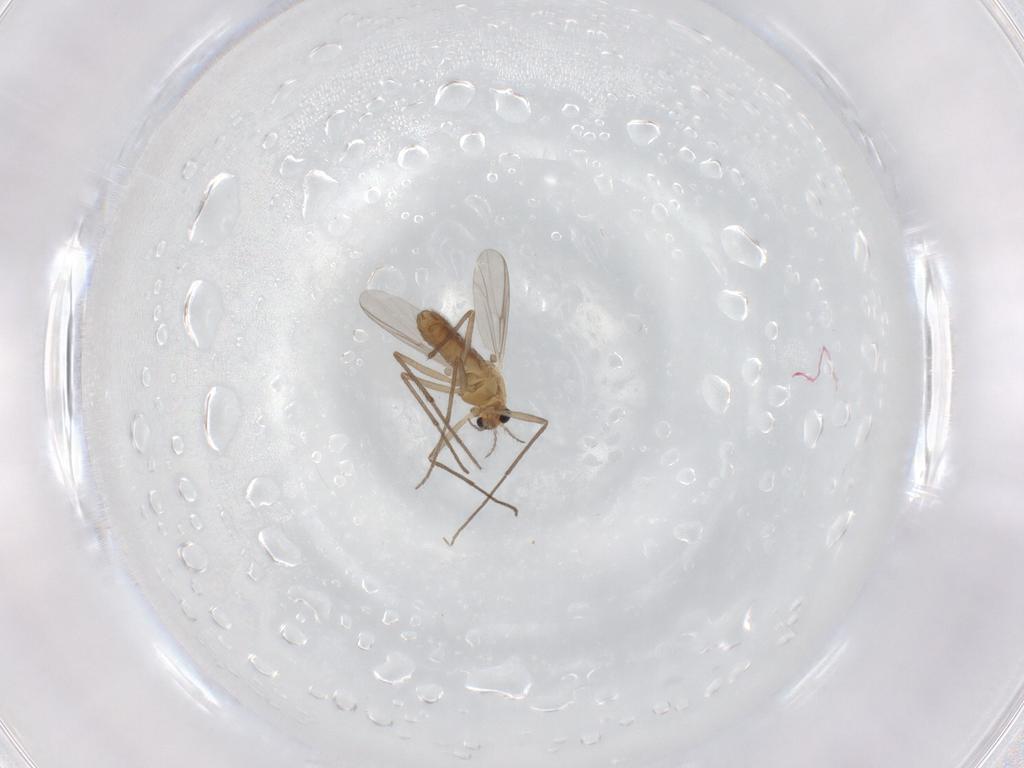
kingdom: Animalia
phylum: Arthropoda
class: Insecta
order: Diptera
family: Chironomidae
